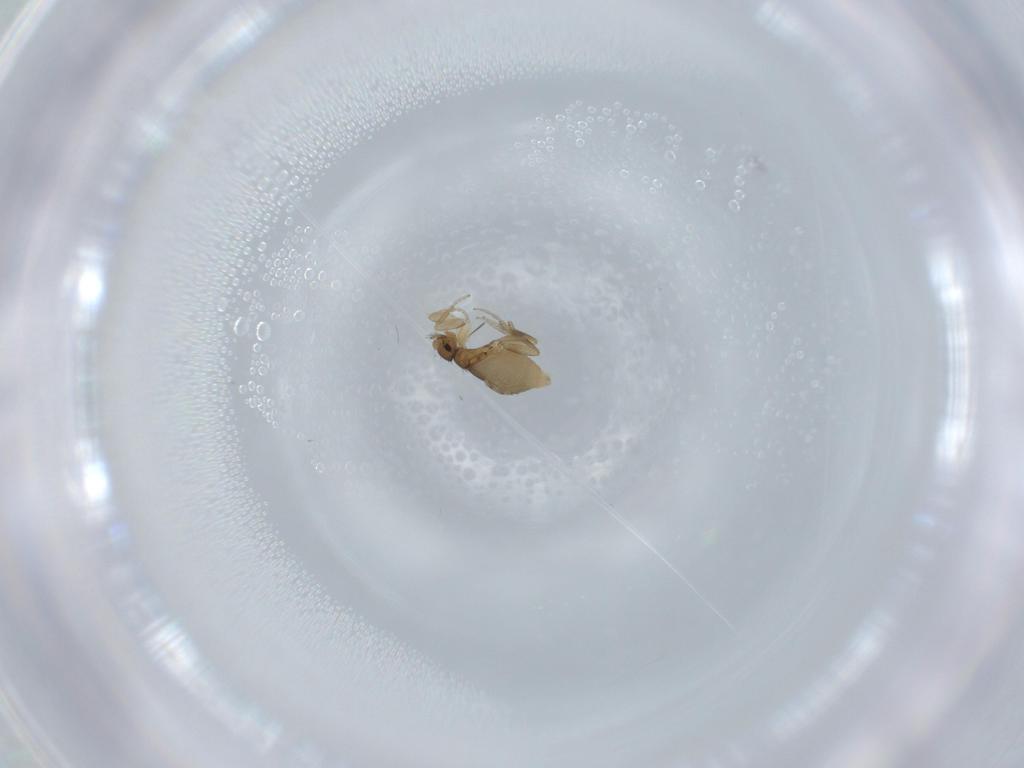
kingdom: Animalia
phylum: Arthropoda
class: Insecta
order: Diptera
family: Phoridae
